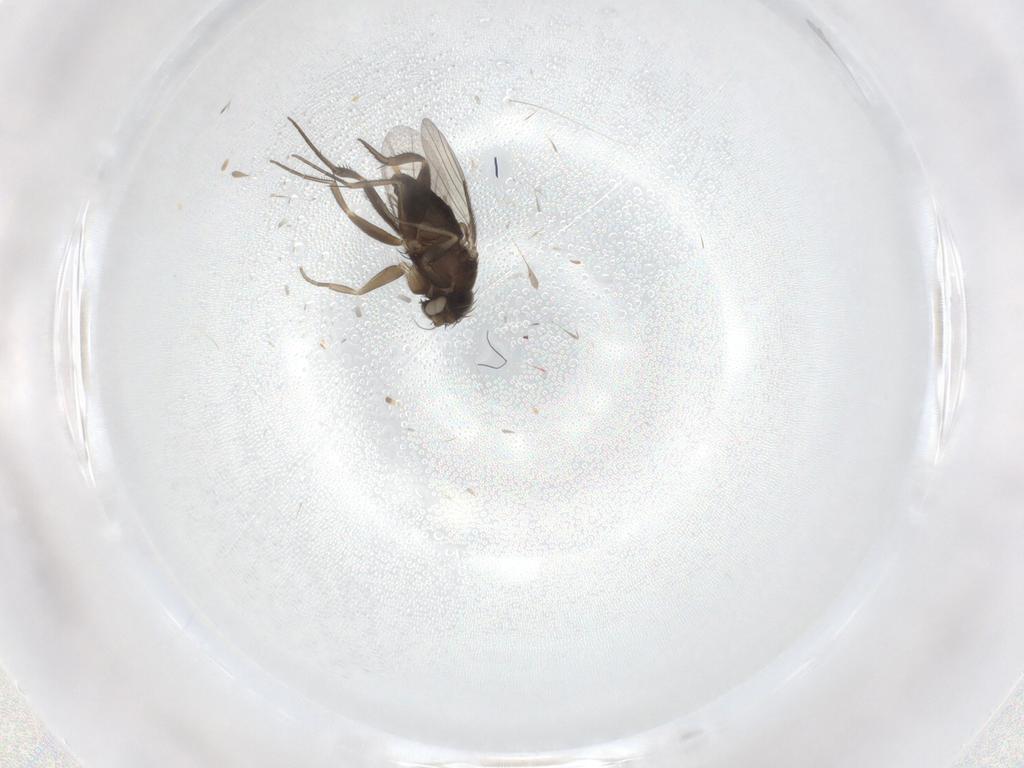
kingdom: Animalia
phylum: Arthropoda
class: Insecta
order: Diptera
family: Phoridae
